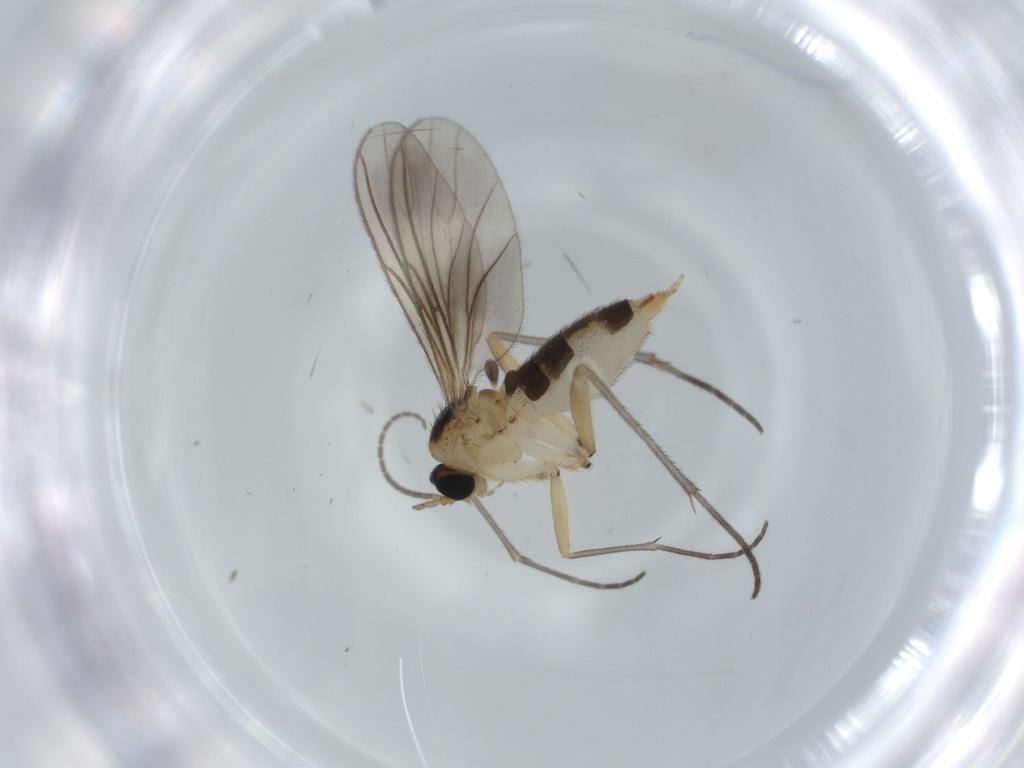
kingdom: Animalia
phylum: Arthropoda
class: Insecta
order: Diptera
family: Sciaridae
